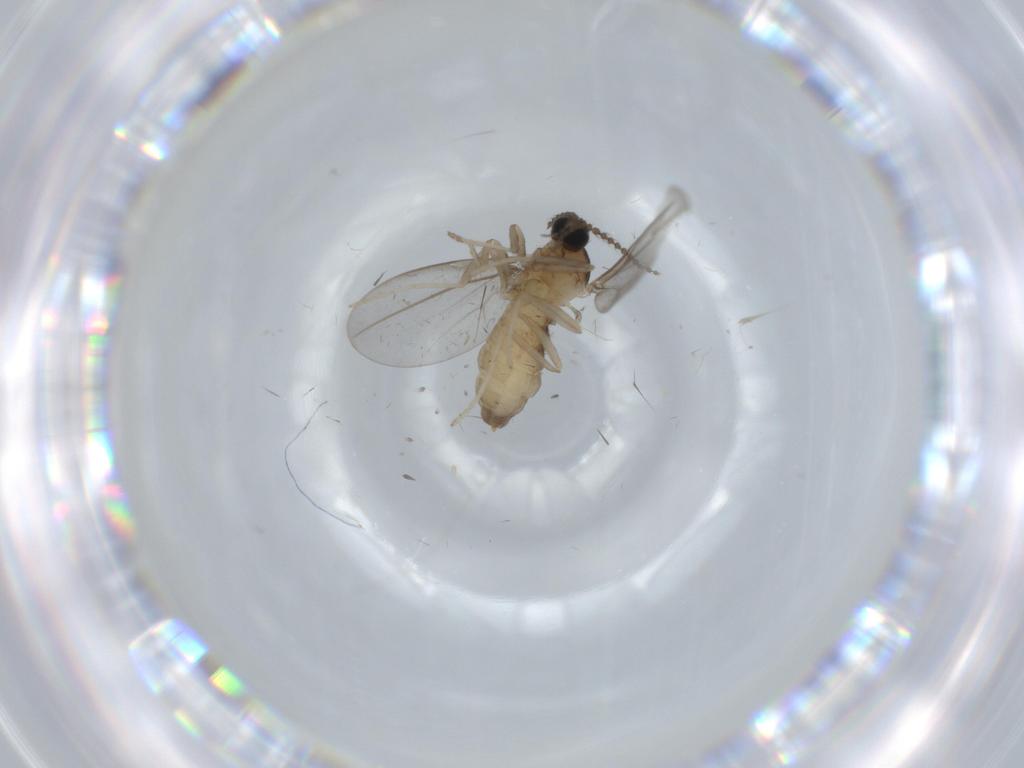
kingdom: Animalia
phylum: Arthropoda
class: Insecta
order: Diptera
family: Cecidomyiidae
